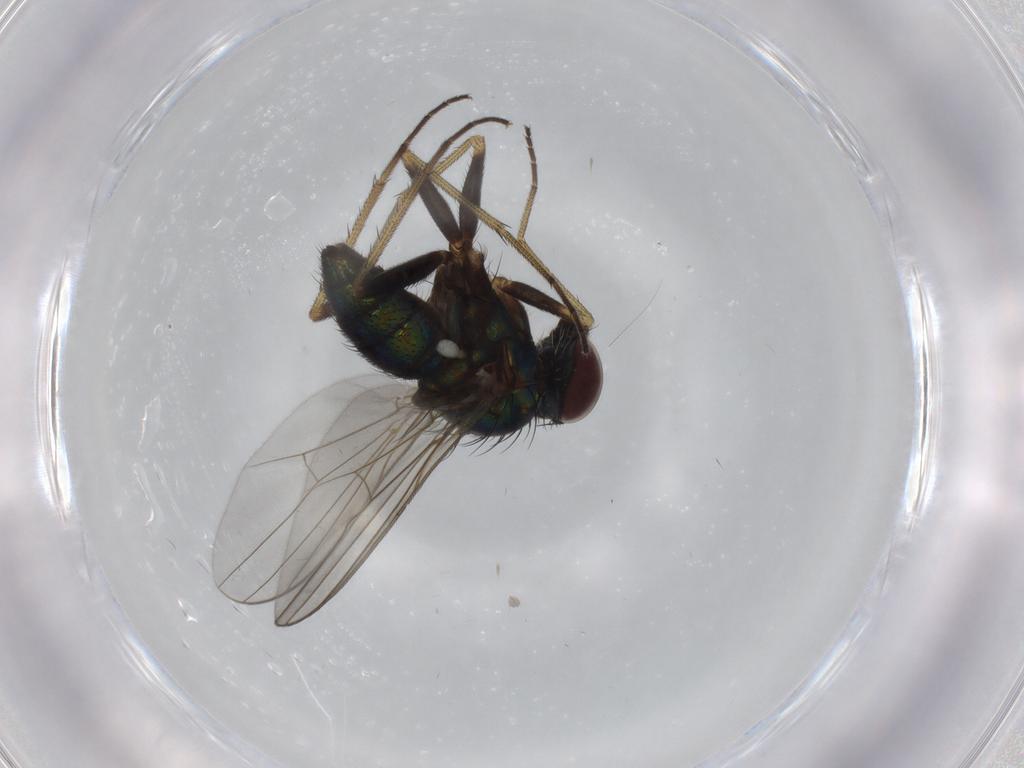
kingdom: Animalia
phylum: Arthropoda
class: Insecta
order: Diptera
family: Dolichopodidae
